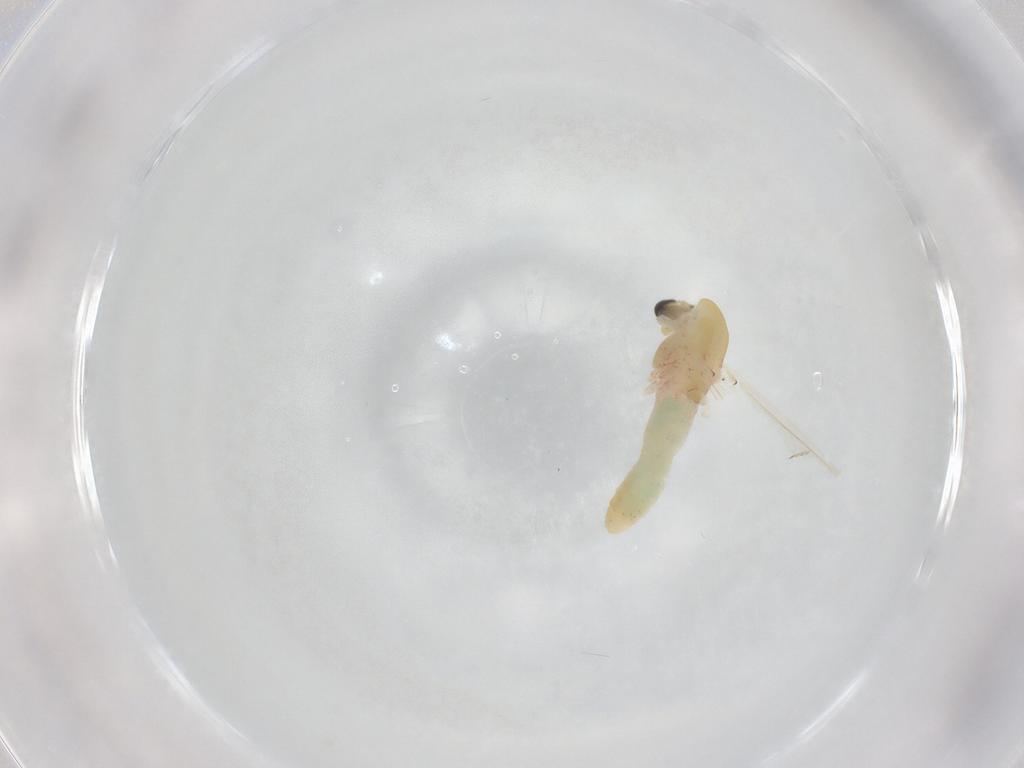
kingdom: Animalia
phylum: Arthropoda
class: Insecta
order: Diptera
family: Chironomidae
